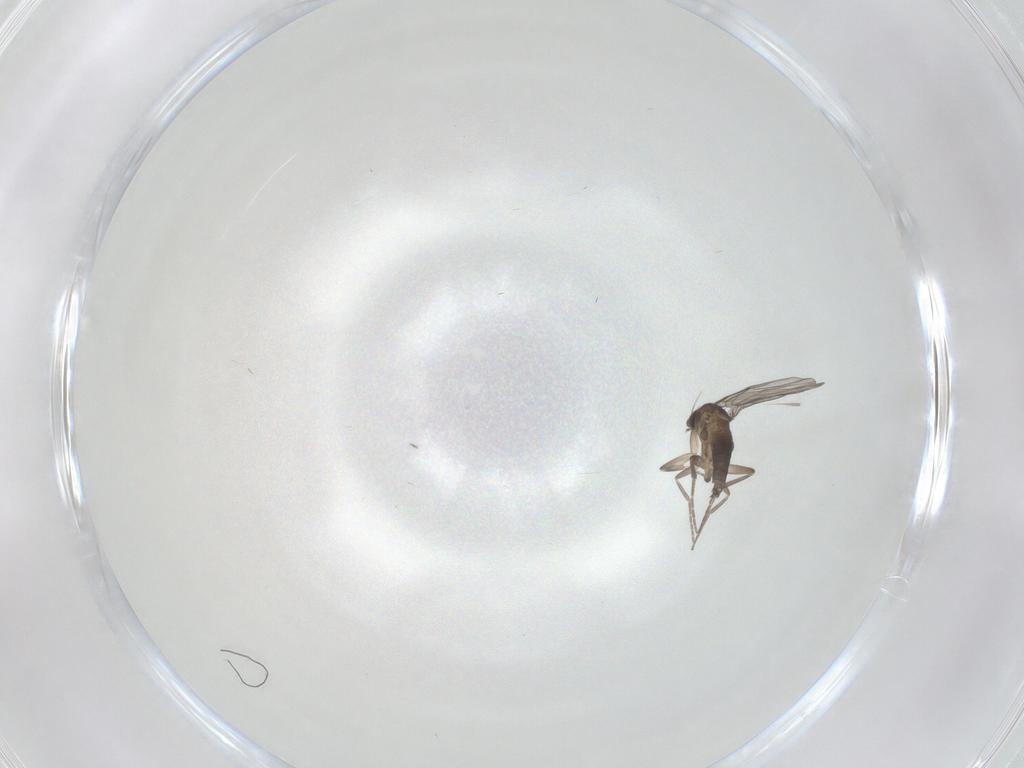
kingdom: Animalia
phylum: Arthropoda
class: Insecta
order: Diptera
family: Phoridae
